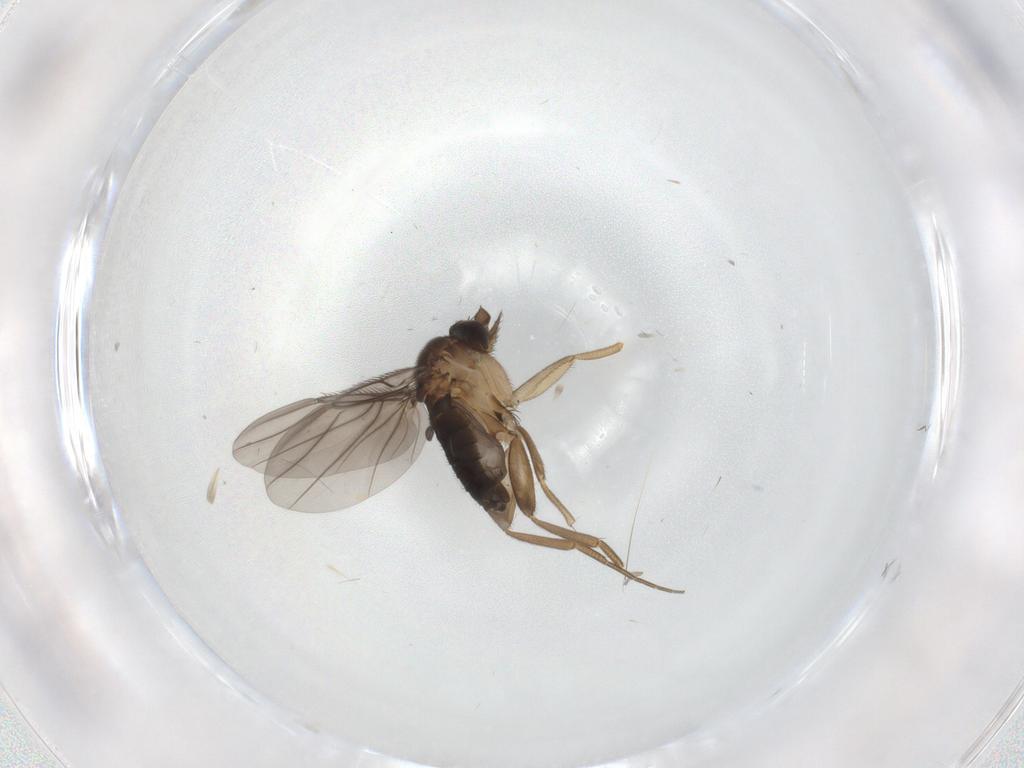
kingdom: Animalia
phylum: Arthropoda
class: Insecta
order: Diptera
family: Phoridae
